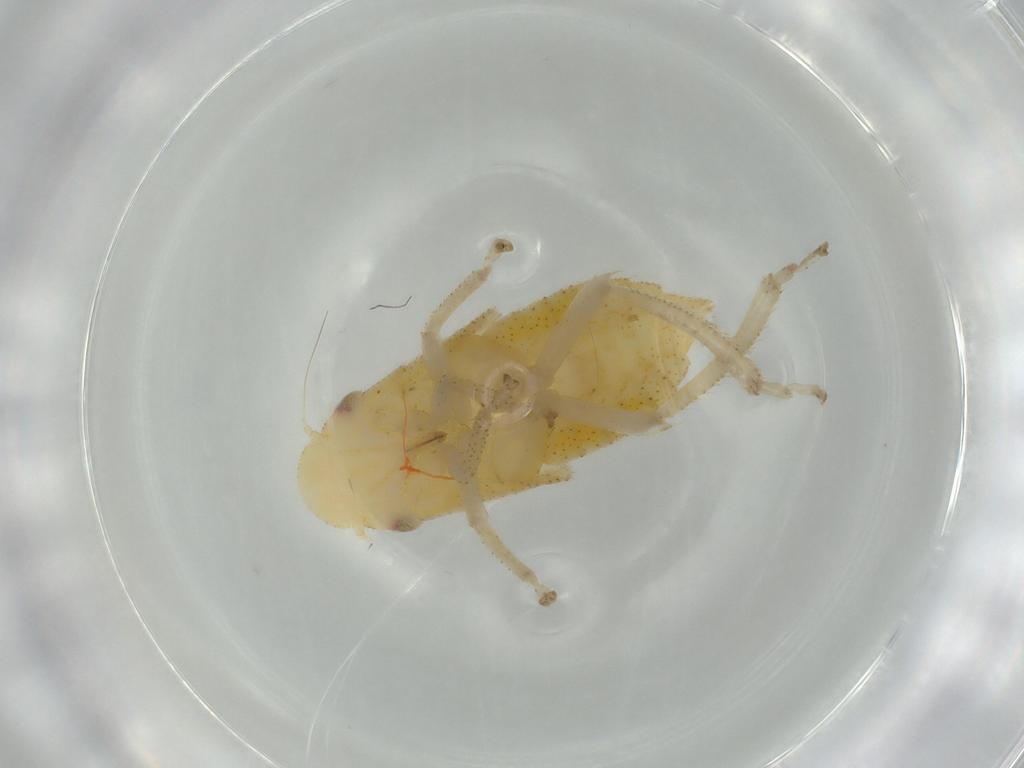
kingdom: Animalia
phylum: Arthropoda
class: Insecta
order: Hemiptera
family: Cicadellidae
